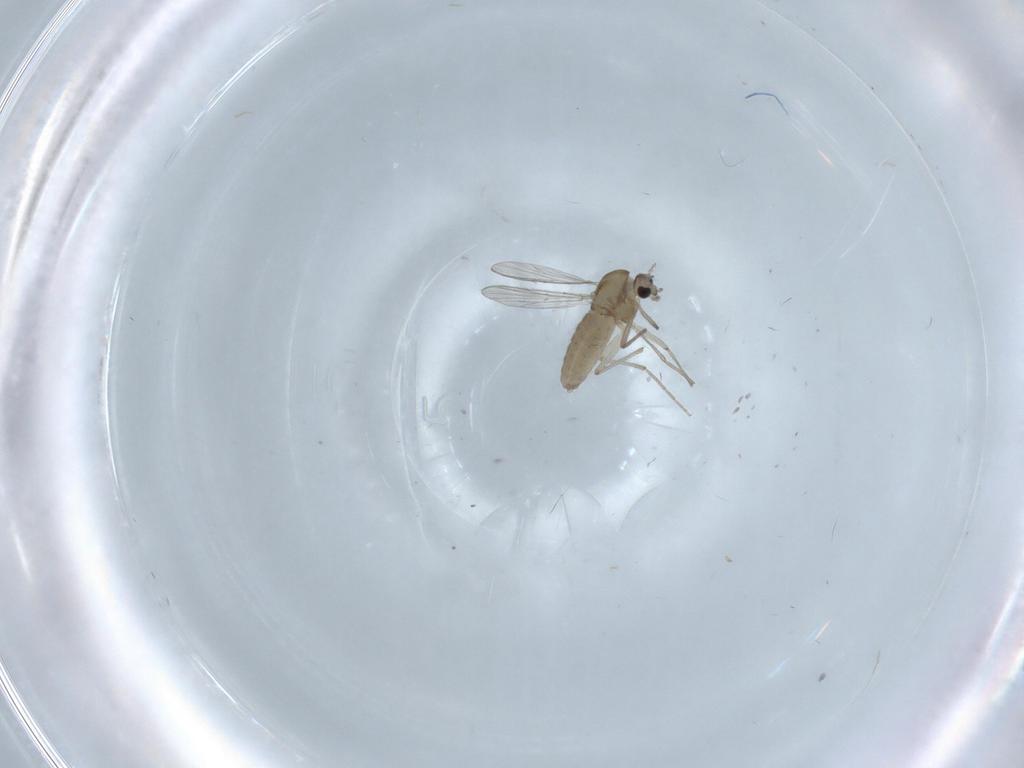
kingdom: Animalia
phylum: Arthropoda
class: Insecta
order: Diptera
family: Chironomidae
